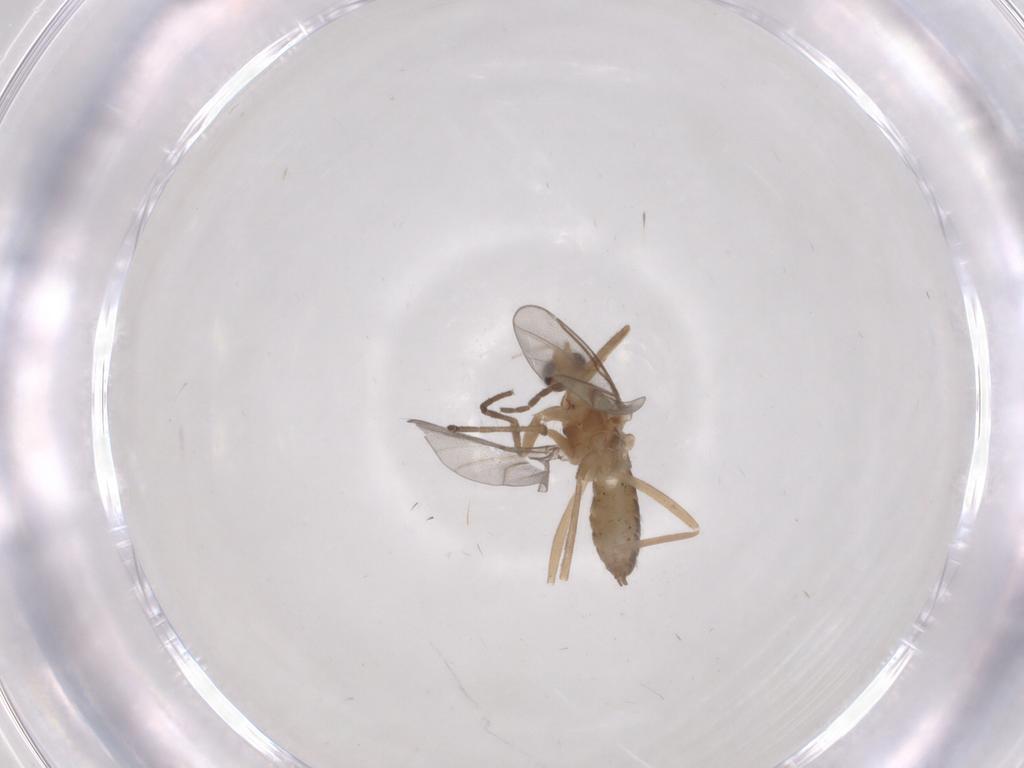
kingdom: Animalia
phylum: Arthropoda
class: Insecta
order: Diptera
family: Cecidomyiidae
